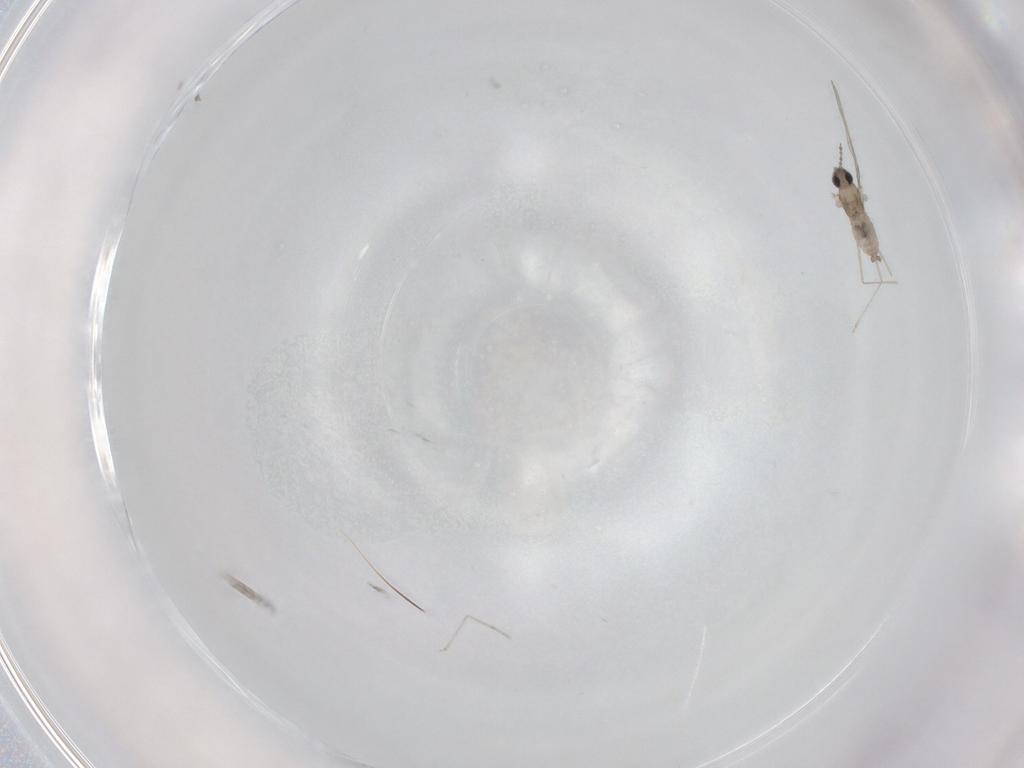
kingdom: Animalia
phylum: Arthropoda
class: Insecta
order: Diptera
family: Cecidomyiidae
